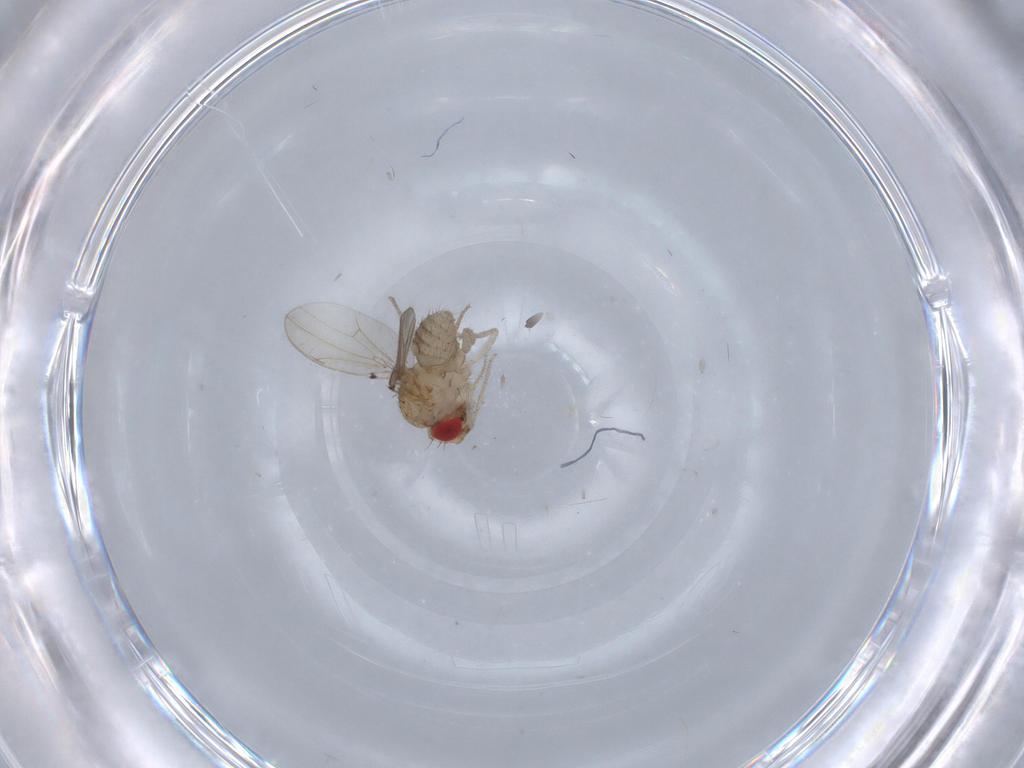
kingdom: Animalia
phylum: Arthropoda
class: Insecta
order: Diptera
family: Drosophilidae
